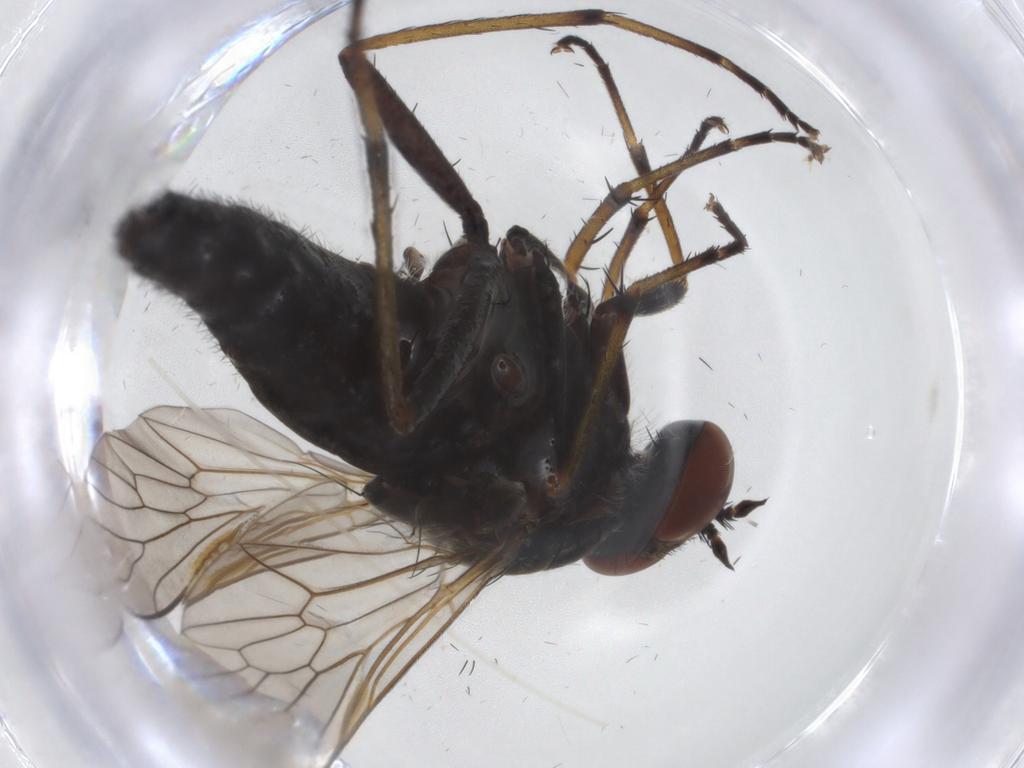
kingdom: Animalia
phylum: Arthropoda
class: Insecta
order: Diptera
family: Therevidae
